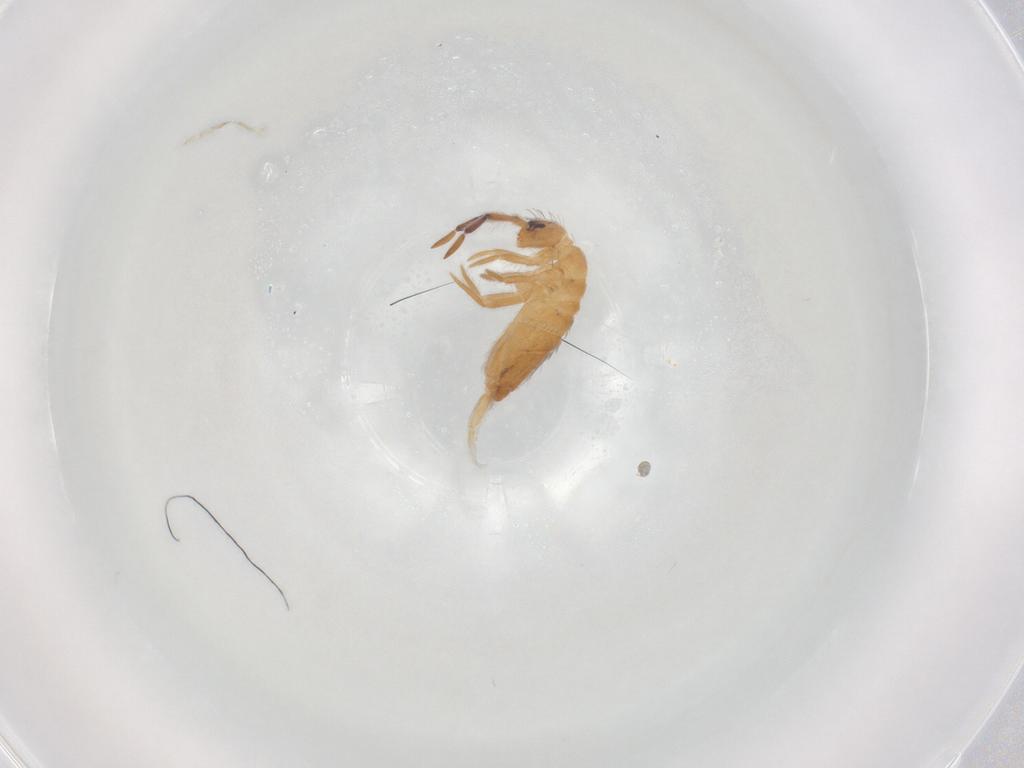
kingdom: Animalia
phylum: Arthropoda
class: Collembola
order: Entomobryomorpha
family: Entomobryidae
